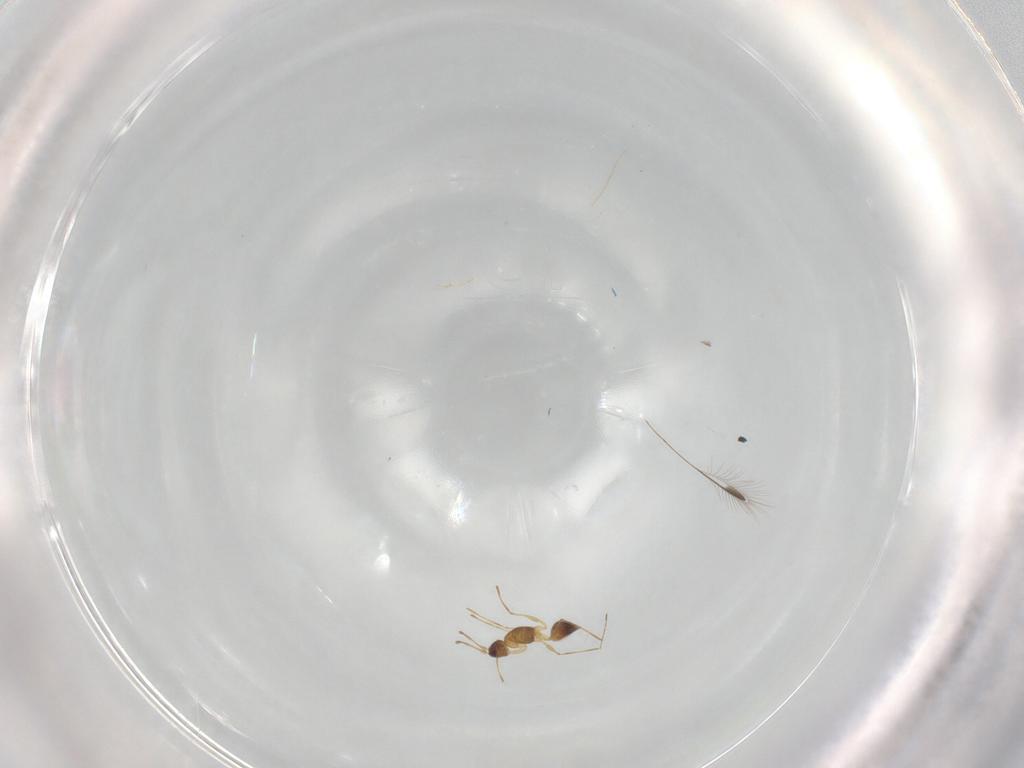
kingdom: Animalia
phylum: Arthropoda
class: Insecta
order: Hymenoptera
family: Mymaridae
